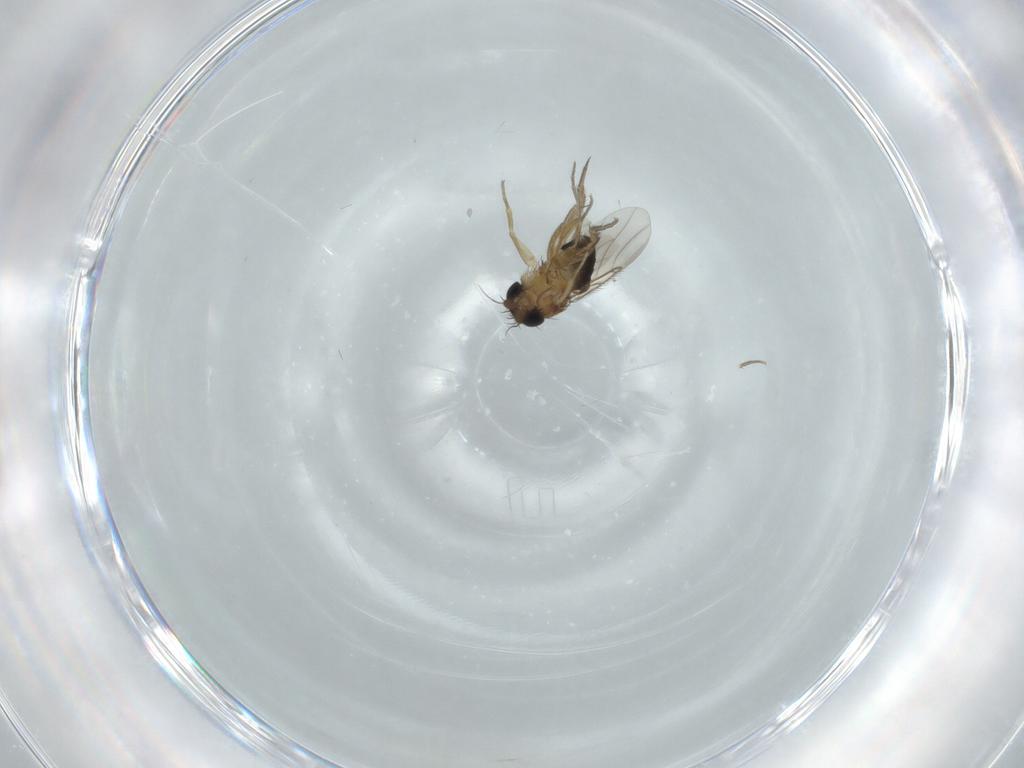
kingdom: Animalia
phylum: Arthropoda
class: Insecta
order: Diptera
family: Phoridae
